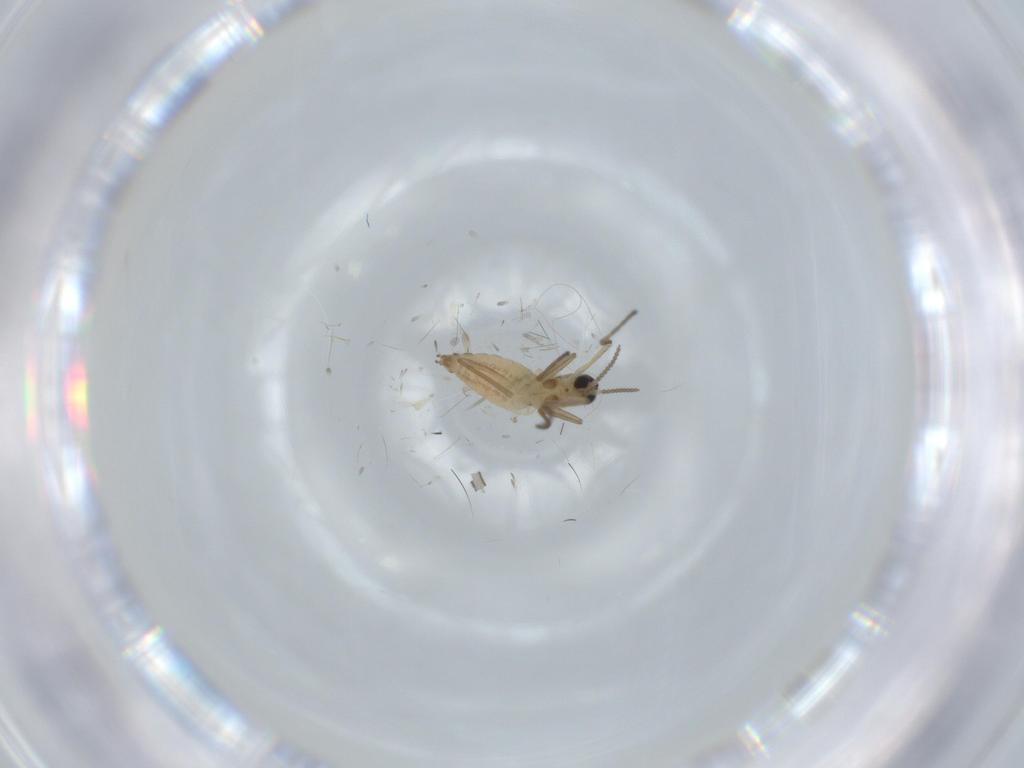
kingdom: Animalia
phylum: Arthropoda
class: Insecta
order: Diptera
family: Cecidomyiidae
